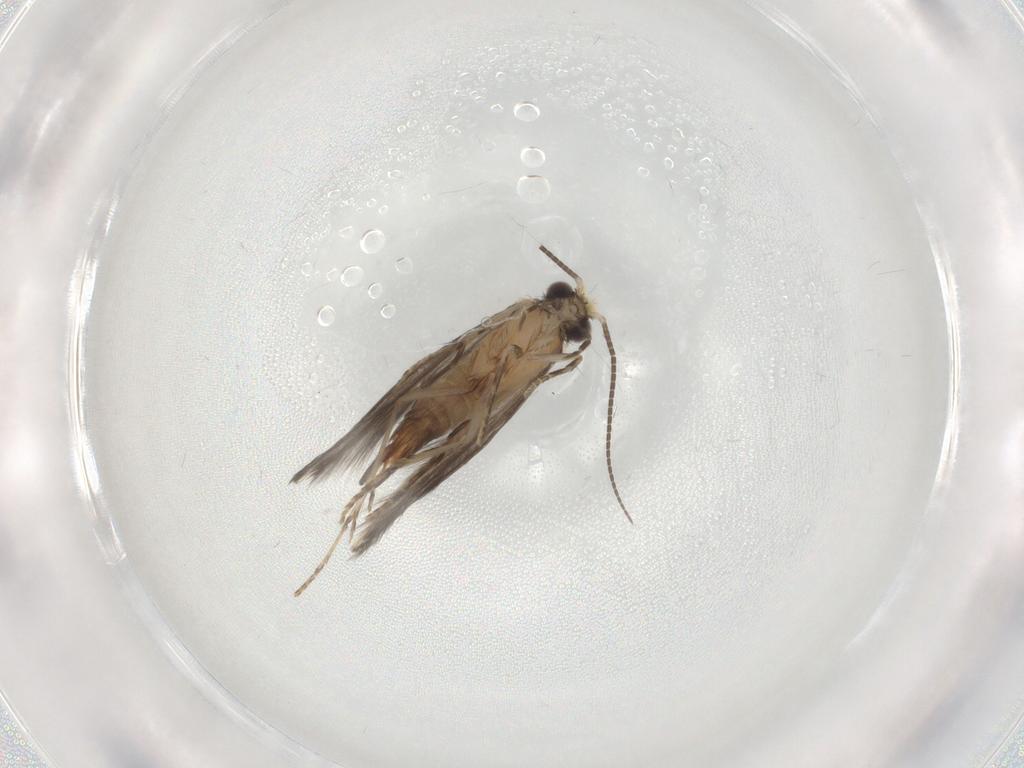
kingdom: Animalia
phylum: Arthropoda
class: Insecta
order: Trichoptera
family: Hydroptilidae
